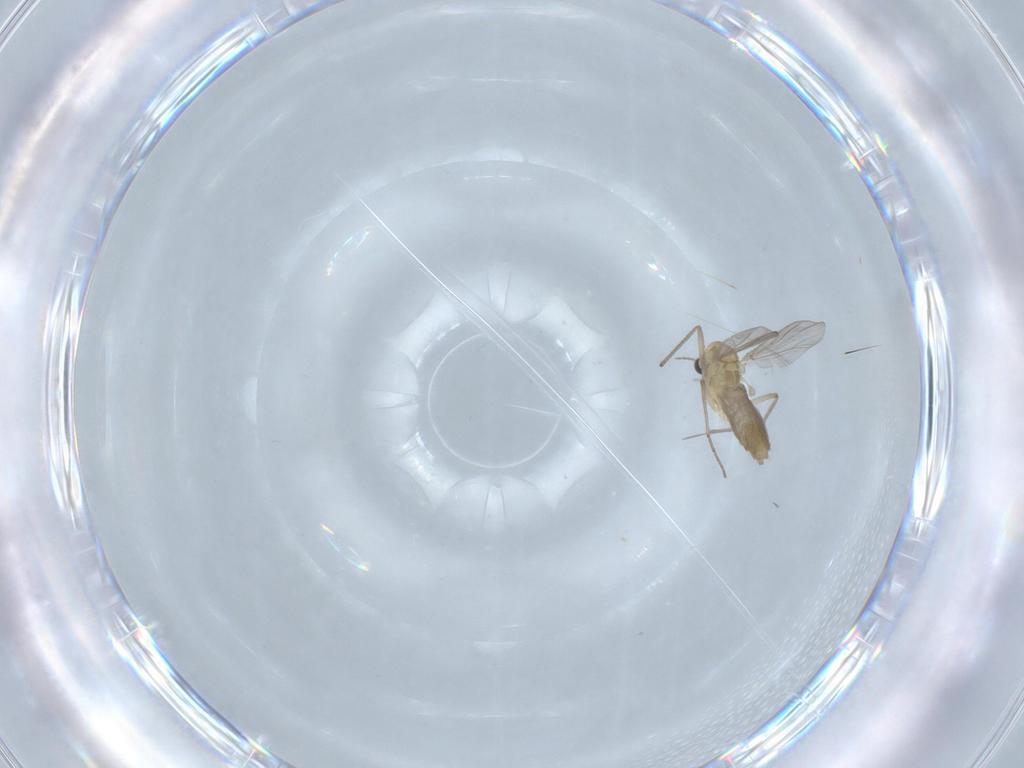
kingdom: Animalia
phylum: Arthropoda
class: Insecta
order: Diptera
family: Chironomidae
